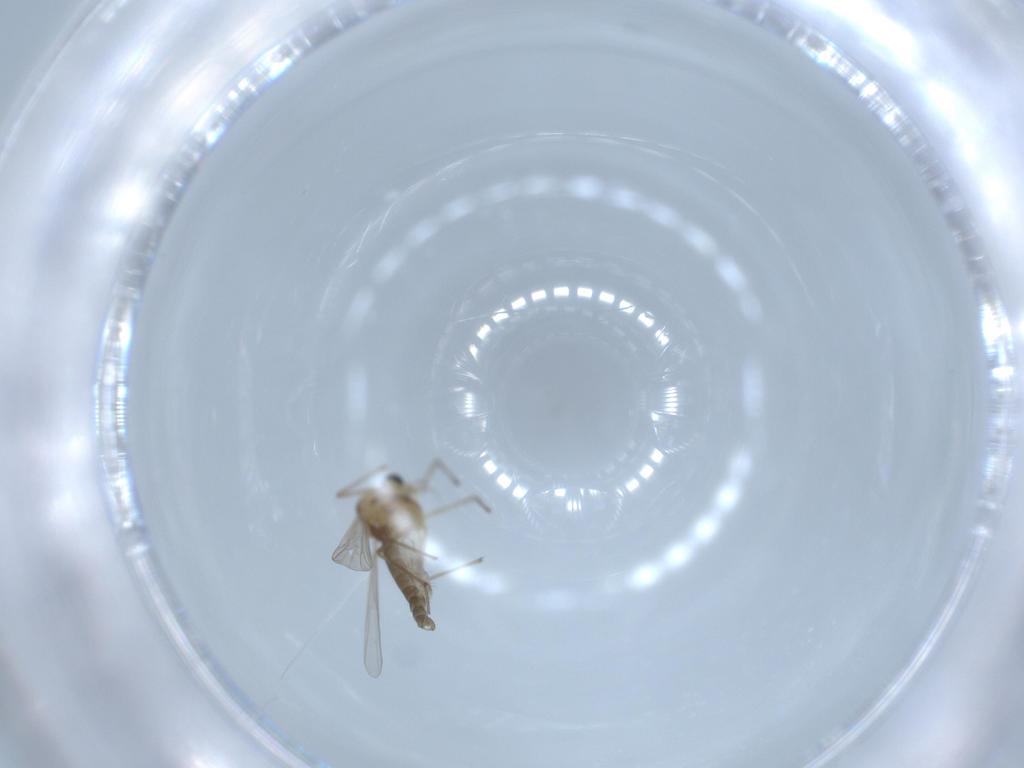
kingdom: Animalia
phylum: Arthropoda
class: Insecta
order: Diptera
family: Chironomidae
